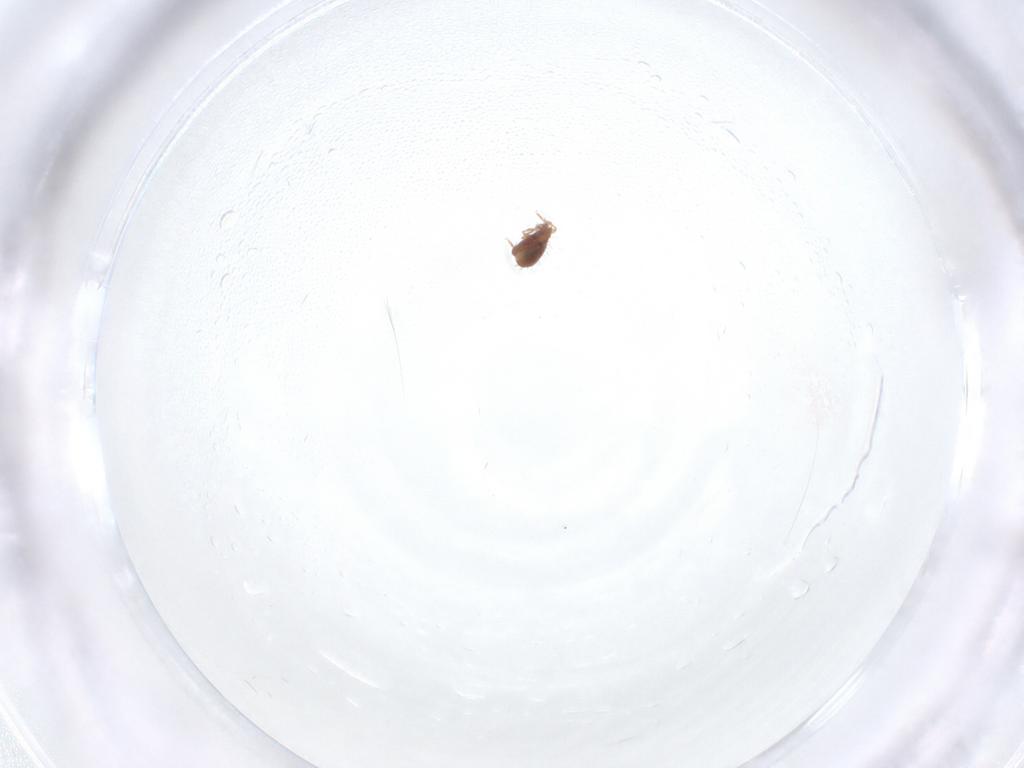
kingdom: Animalia
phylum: Arthropoda
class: Arachnida
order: Sarcoptiformes
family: Oribatulidae
